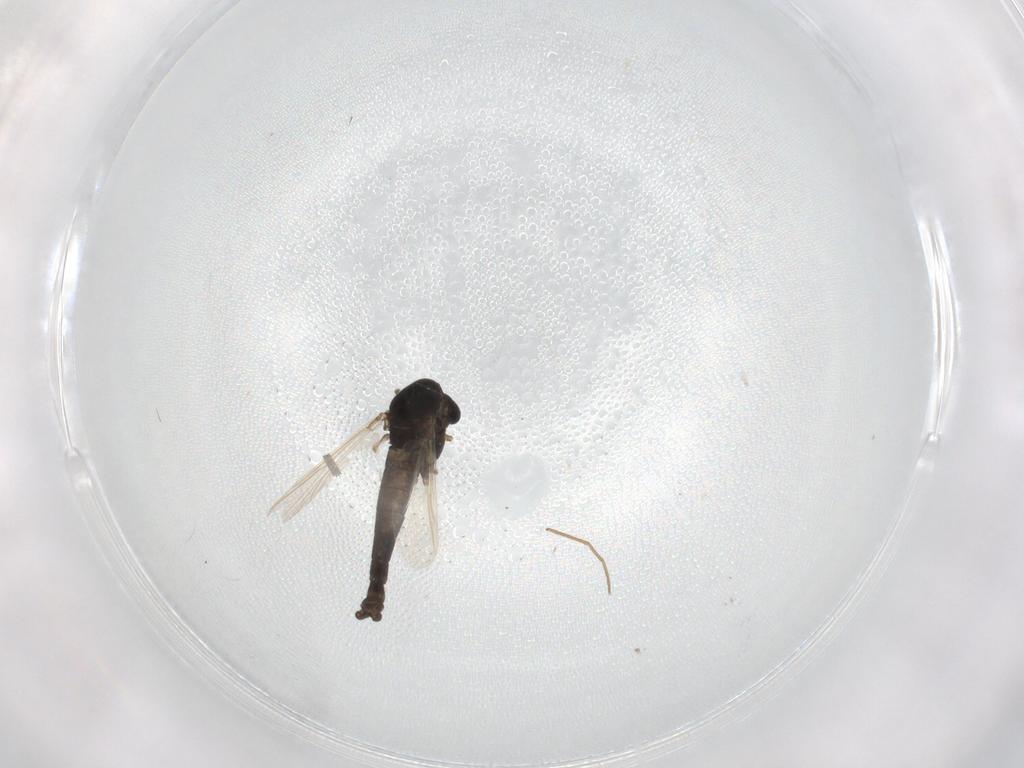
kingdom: Animalia
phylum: Arthropoda
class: Insecta
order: Diptera
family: Chironomidae
